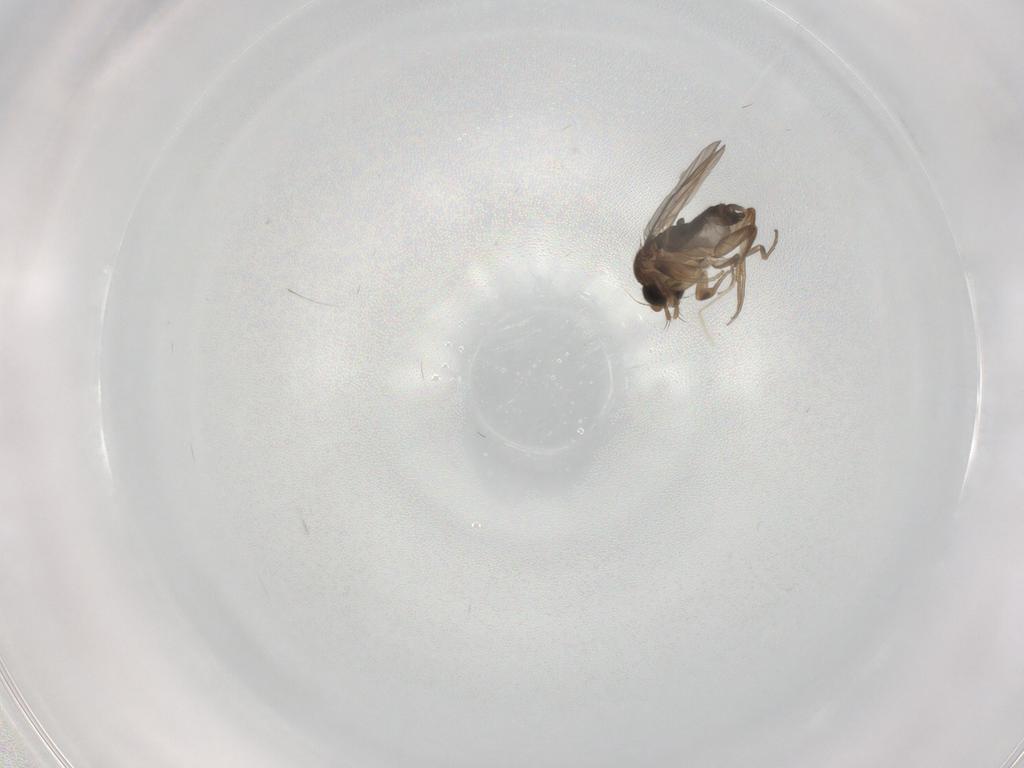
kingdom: Animalia
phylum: Arthropoda
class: Insecta
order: Diptera
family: Phoridae
